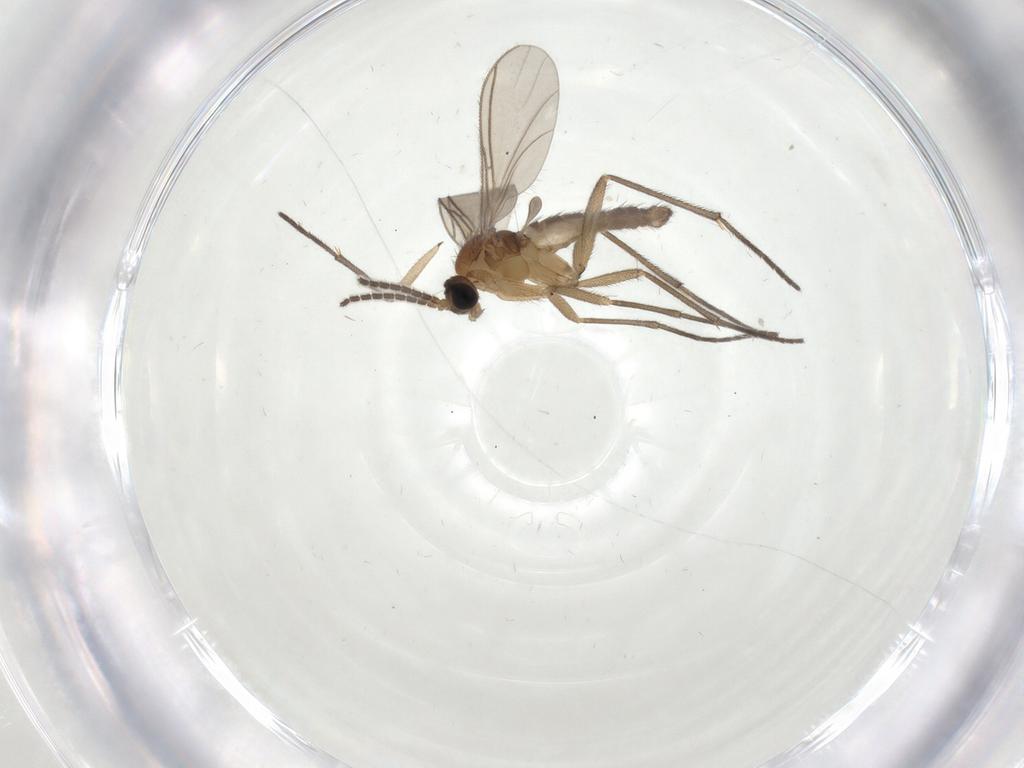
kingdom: Animalia
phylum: Arthropoda
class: Insecta
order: Diptera
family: Sciaridae
